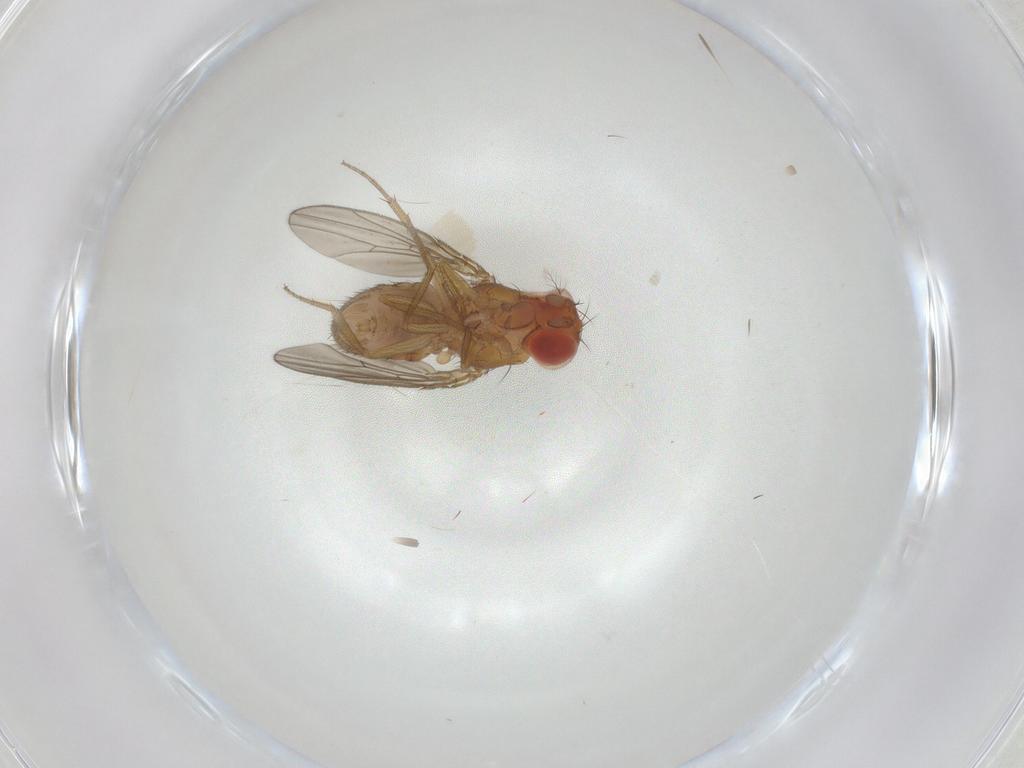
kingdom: Animalia
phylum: Arthropoda
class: Insecta
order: Diptera
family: Drosophilidae
